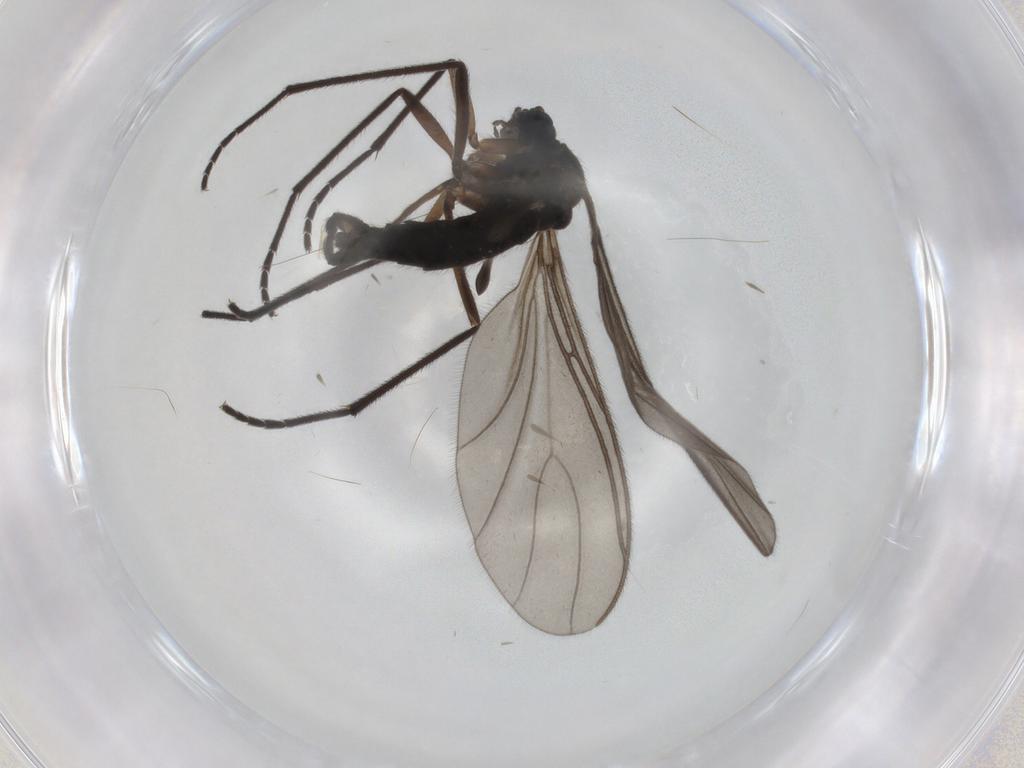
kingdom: Animalia
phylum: Arthropoda
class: Insecta
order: Diptera
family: Sciaridae
